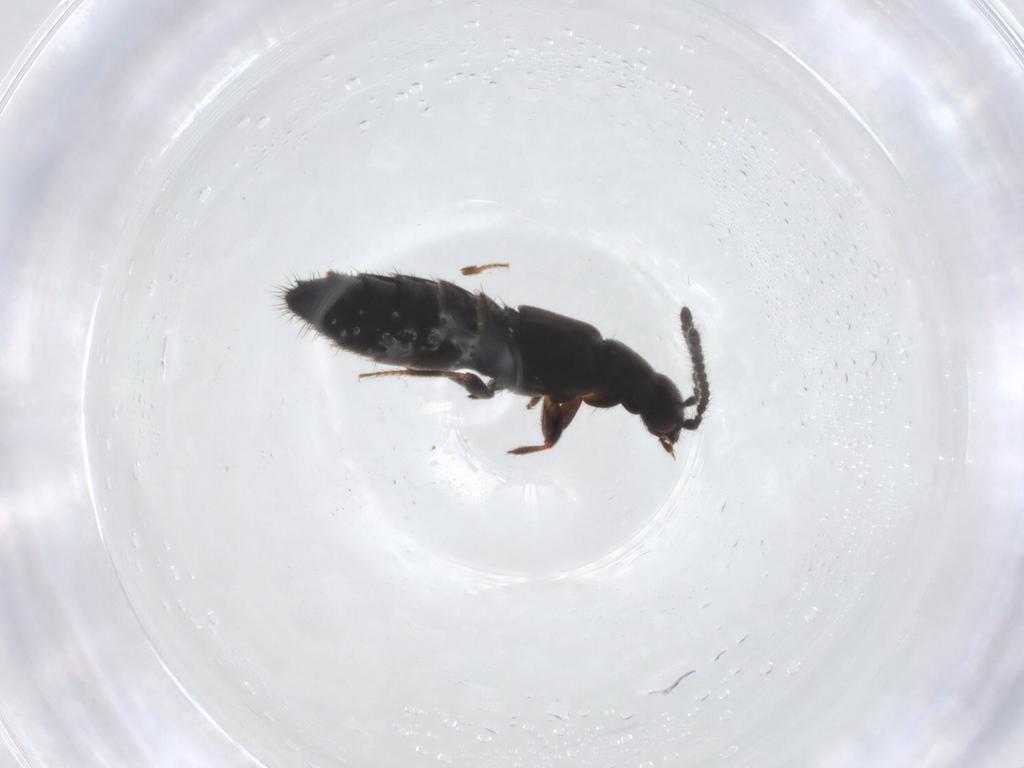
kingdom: Animalia
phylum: Arthropoda
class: Insecta
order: Coleoptera
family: Staphylinidae
